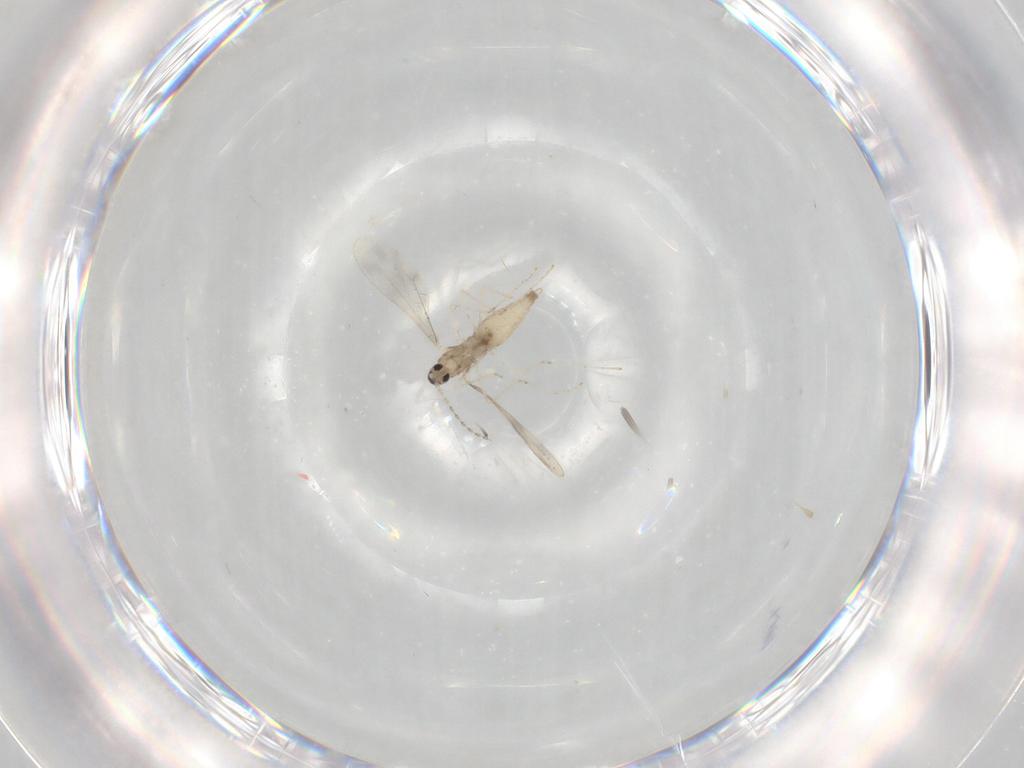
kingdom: Animalia
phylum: Arthropoda
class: Insecta
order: Diptera
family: Cecidomyiidae
